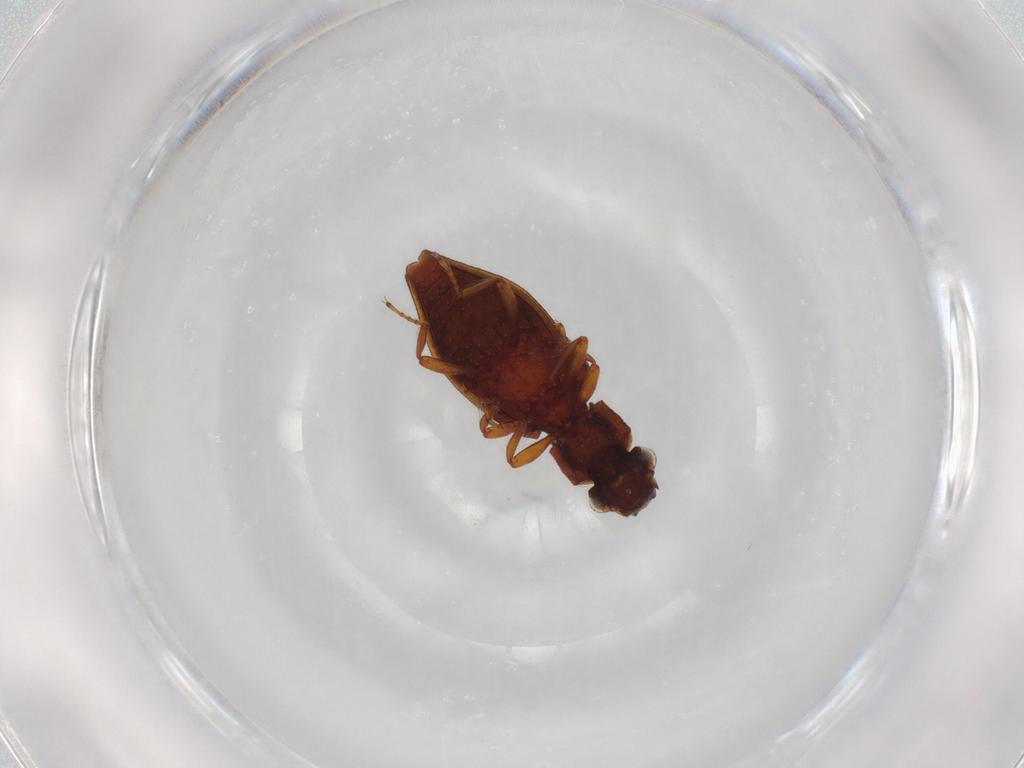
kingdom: Animalia
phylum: Arthropoda
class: Insecta
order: Coleoptera
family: Hydrophilidae
